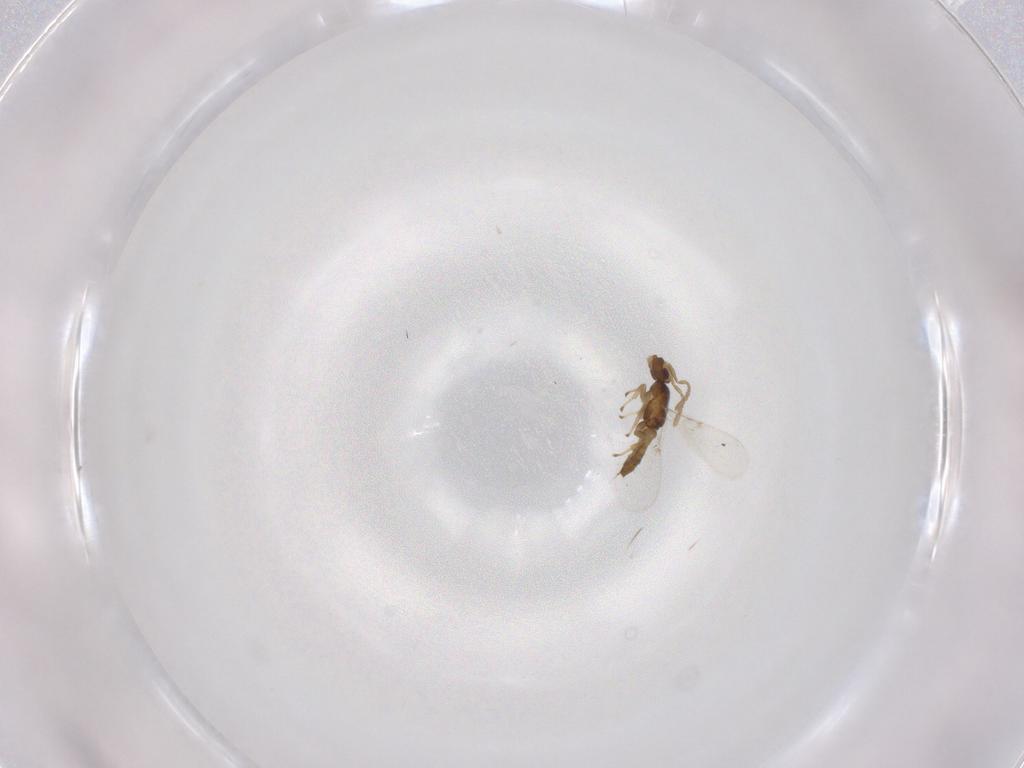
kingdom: Animalia
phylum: Arthropoda
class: Insecta
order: Hymenoptera
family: Encyrtidae
